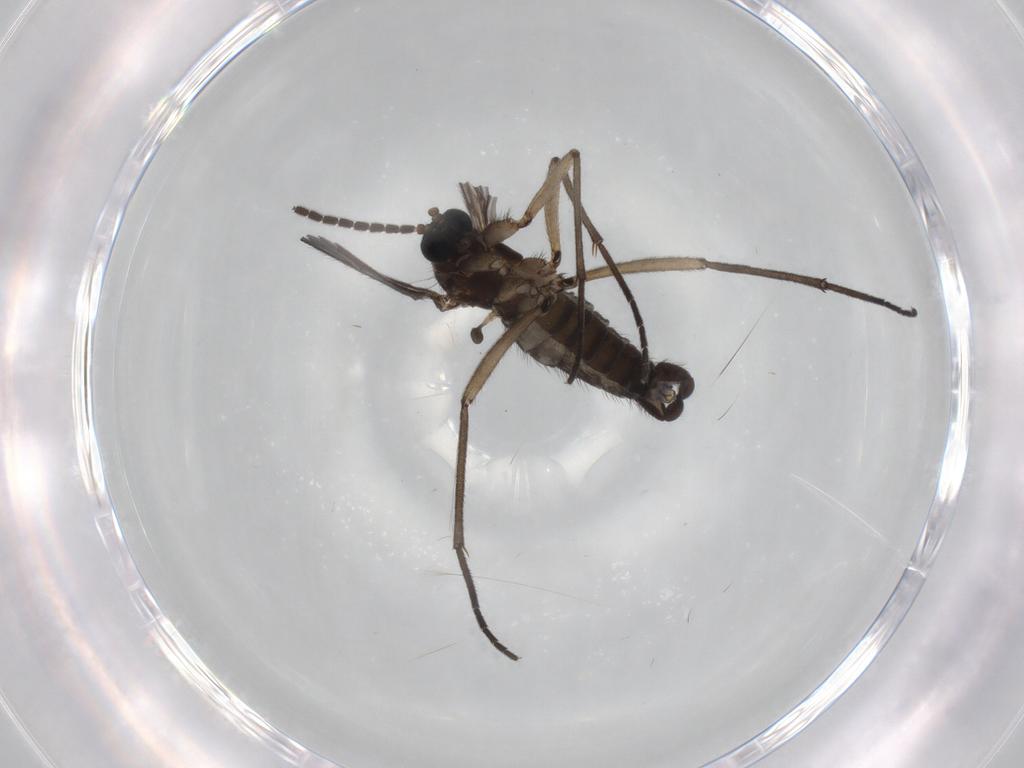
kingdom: Animalia
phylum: Arthropoda
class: Insecta
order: Diptera
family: Sciaridae
